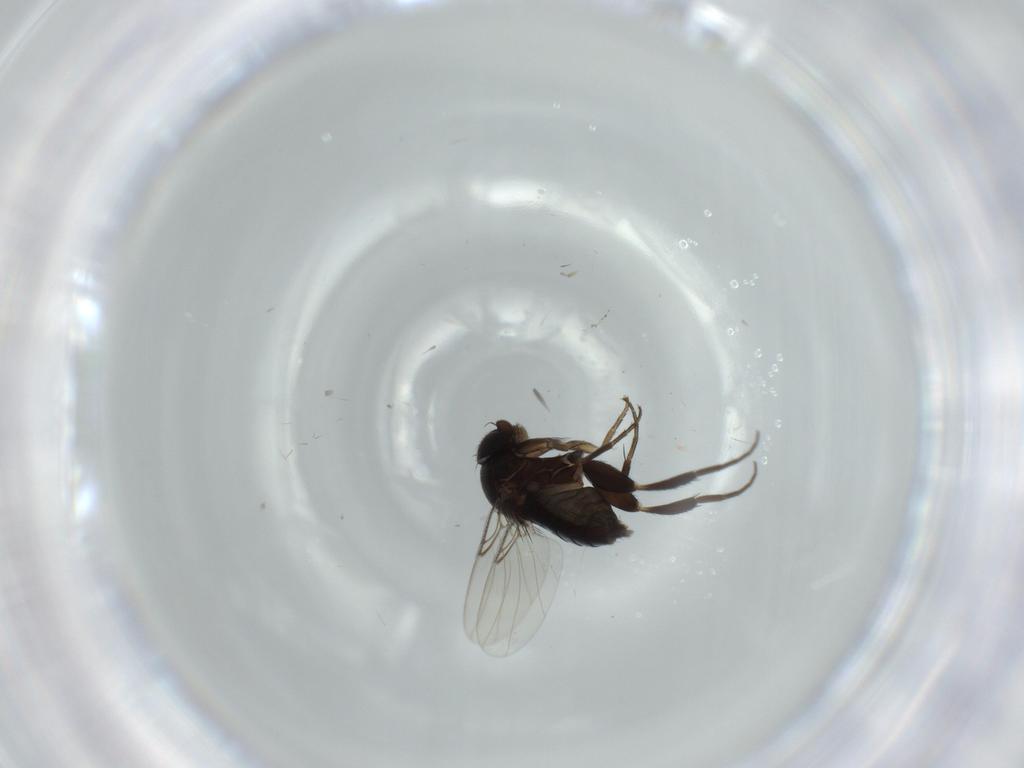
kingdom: Animalia
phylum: Arthropoda
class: Insecta
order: Diptera
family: Phoridae
